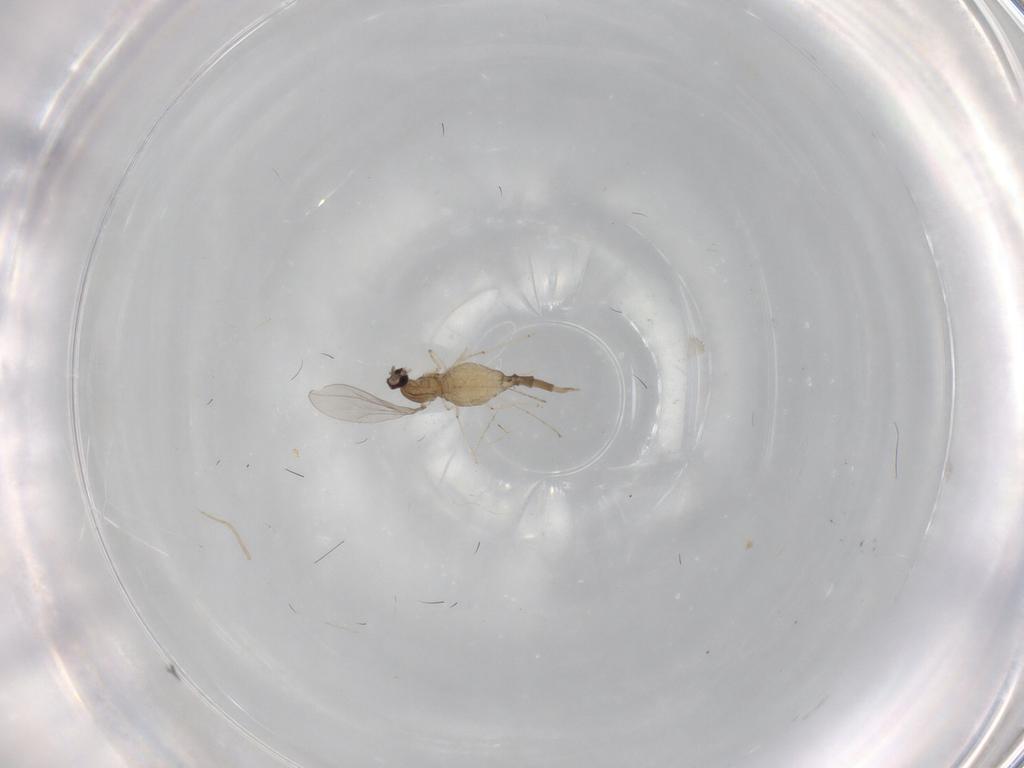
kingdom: Animalia
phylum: Arthropoda
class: Insecta
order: Diptera
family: Cecidomyiidae
